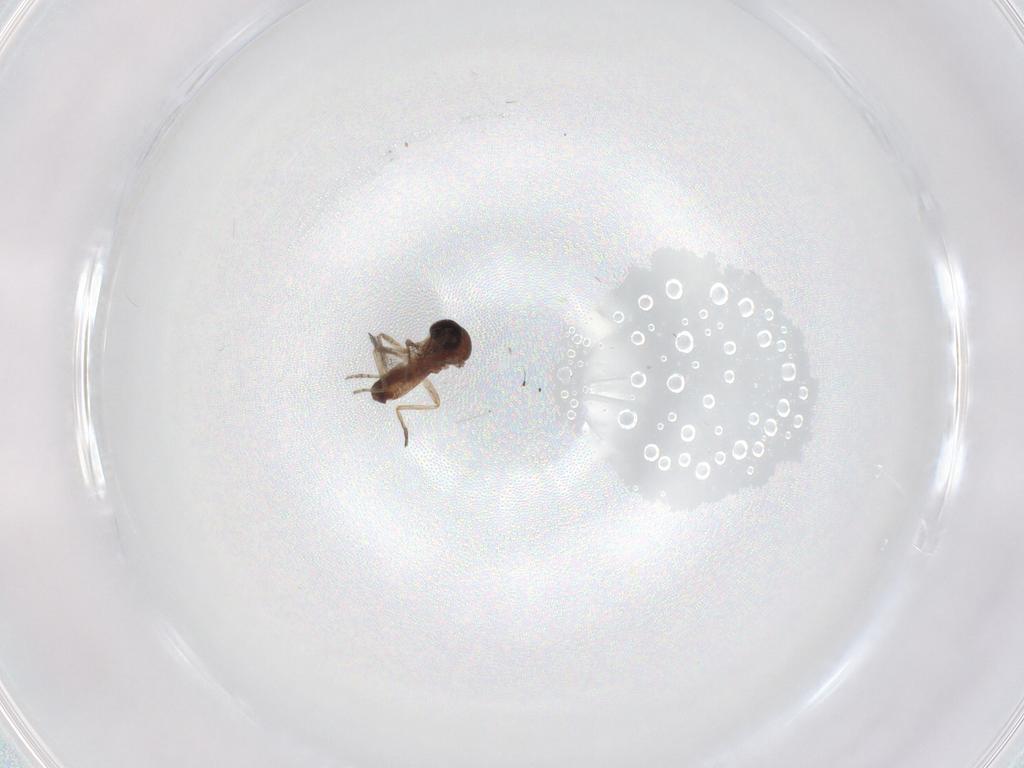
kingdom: Animalia
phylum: Arthropoda
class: Insecta
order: Diptera
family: Ceratopogonidae
